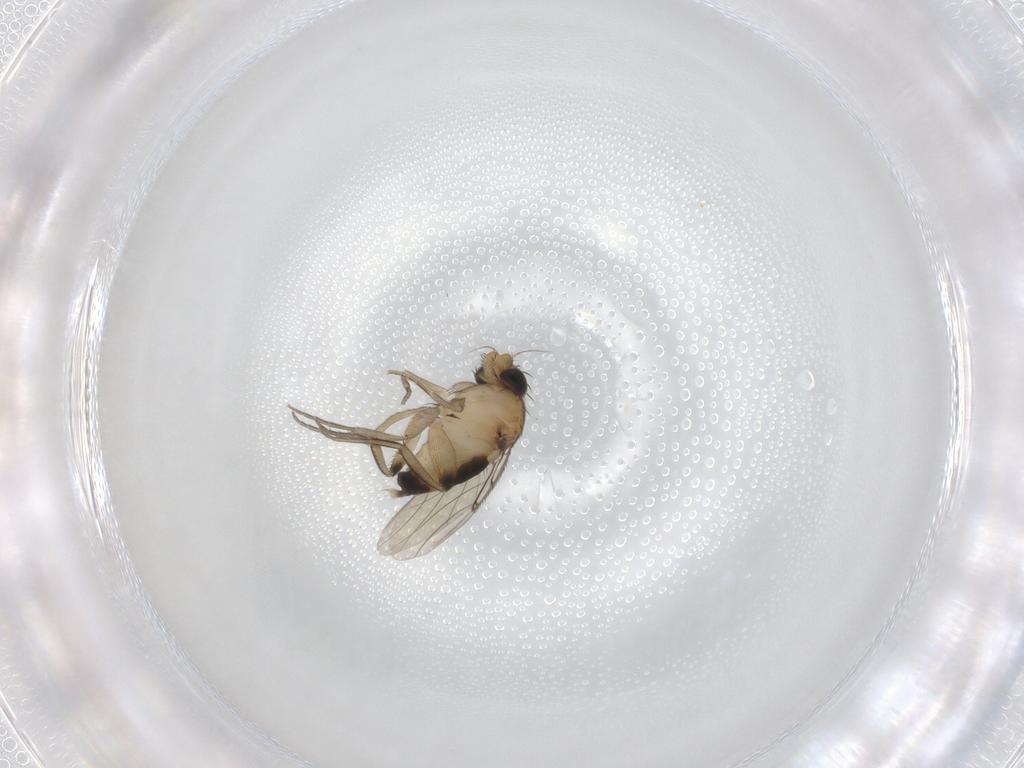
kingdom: Animalia
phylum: Arthropoda
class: Insecta
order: Diptera
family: Phoridae
